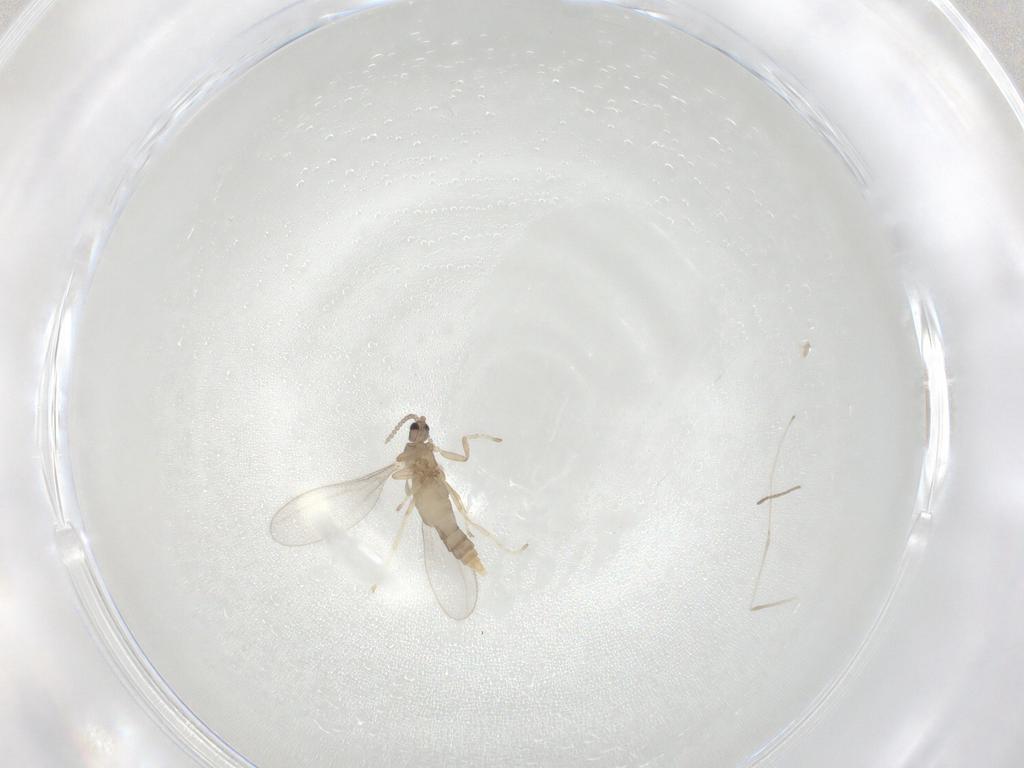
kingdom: Animalia
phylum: Arthropoda
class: Insecta
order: Diptera
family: Cecidomyiidae
